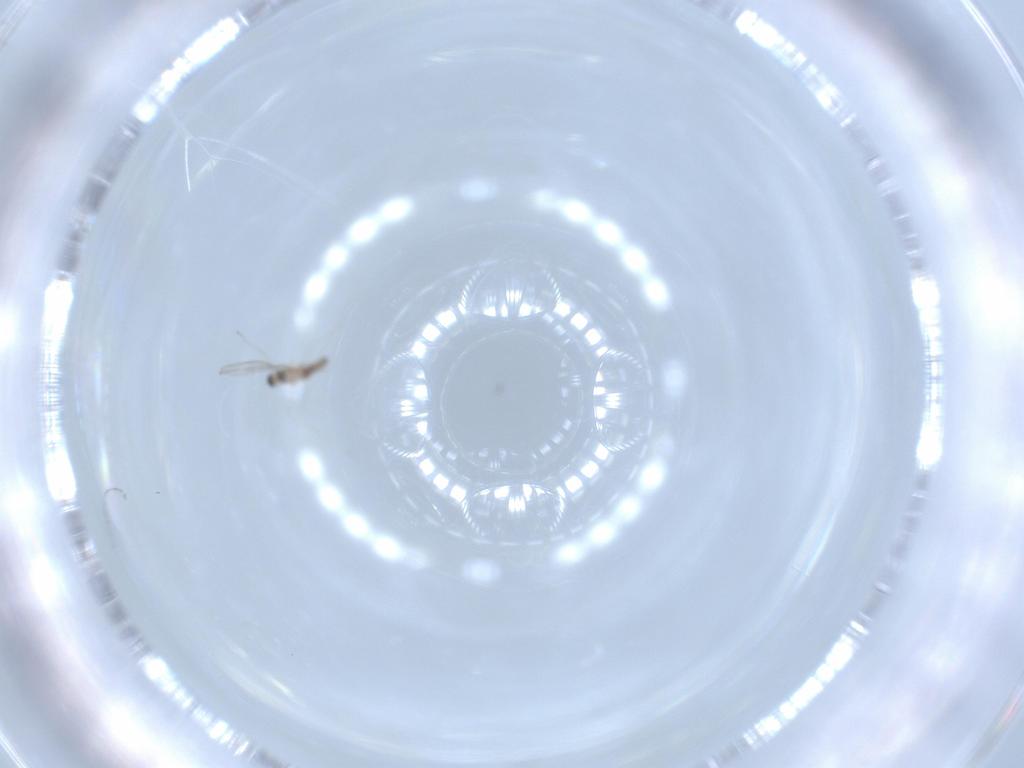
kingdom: Animalia
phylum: Arthropoda
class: Insecta
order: Diptera
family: Cecidomyiidae
